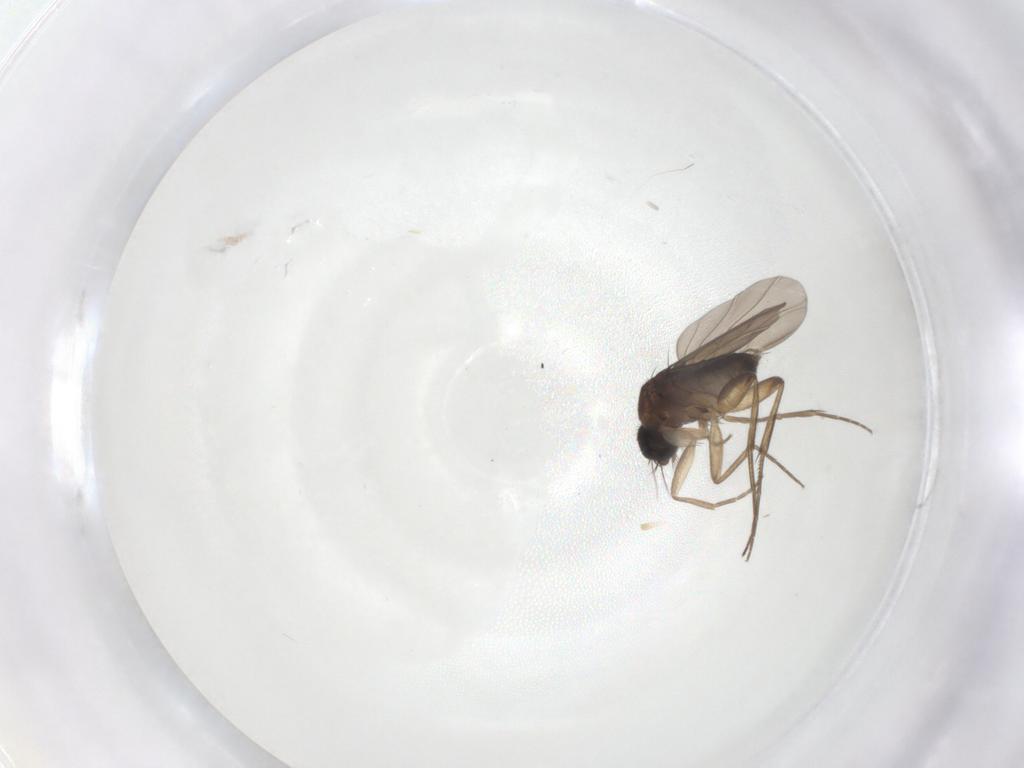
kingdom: Animalia
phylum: Arthropoda
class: Insecta
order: Diptera
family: Phoridae
